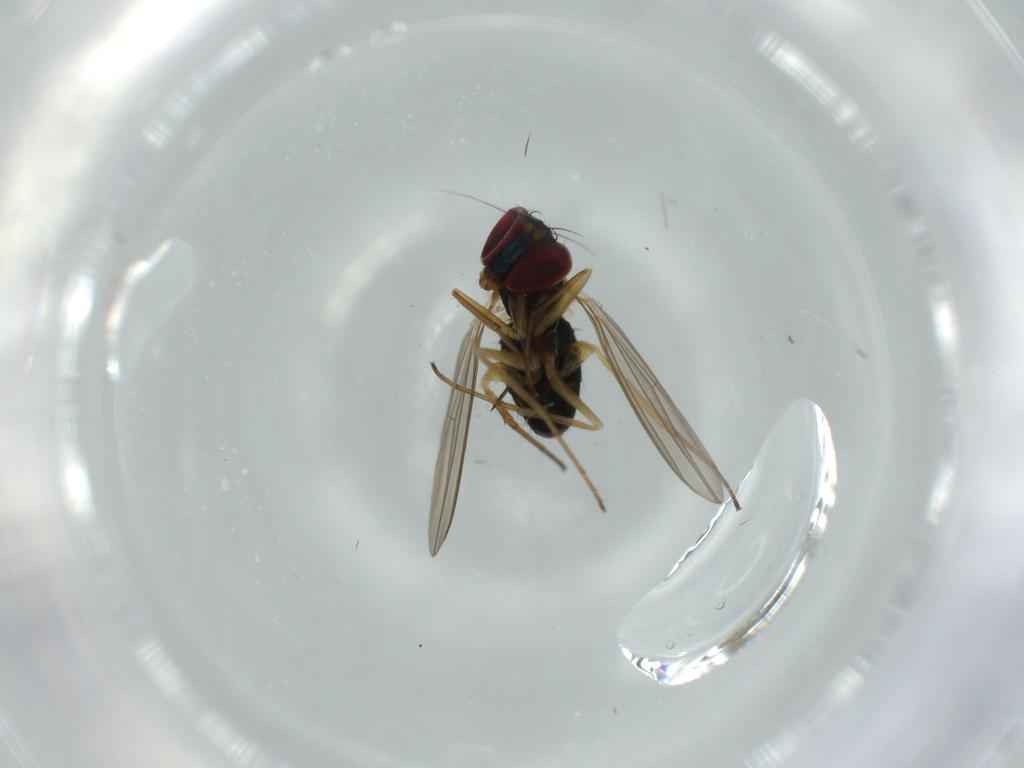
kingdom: Animalia
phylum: Arthropoda
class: Insecta
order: Diptera
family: Dolichopodidae
